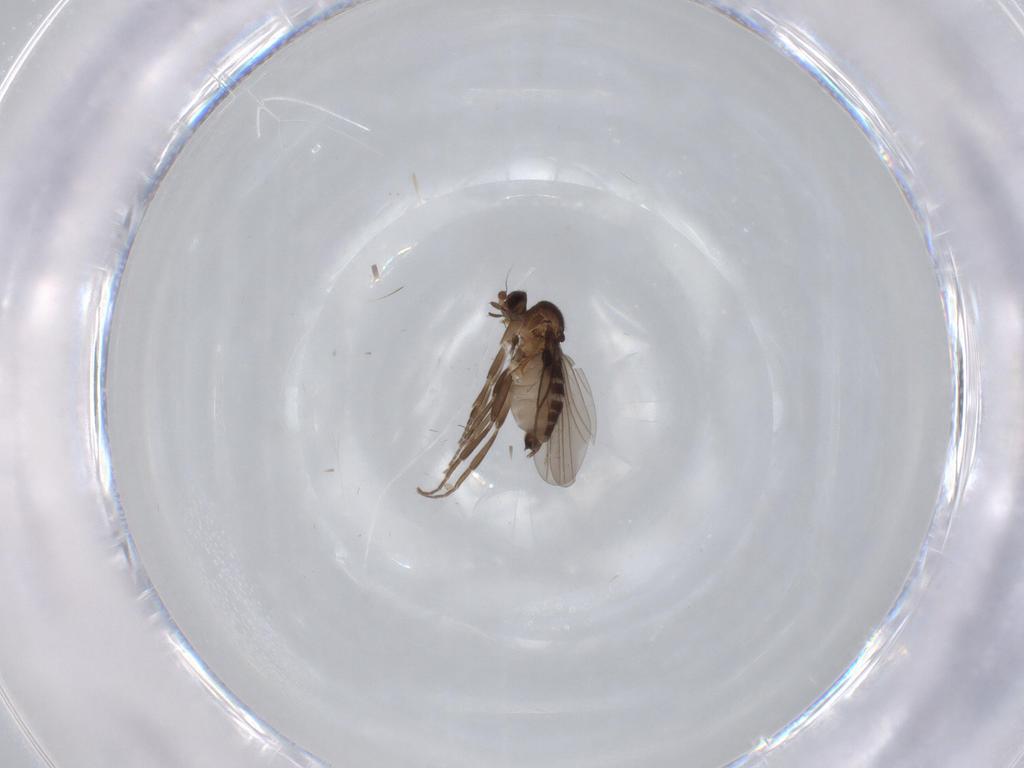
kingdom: Animalia
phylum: Arthropoda
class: Insecta
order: Diptera
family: Phoridae
